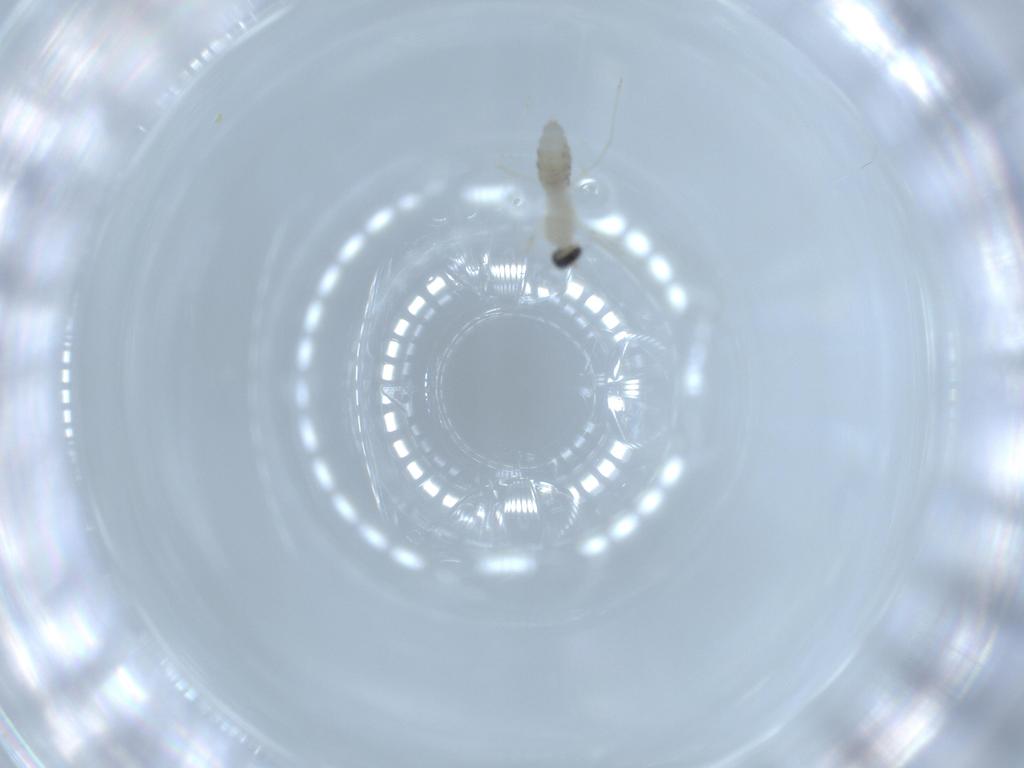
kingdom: Animalia
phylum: Arthropoda
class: Insecta
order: Diptera
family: Cecidomyiidae
